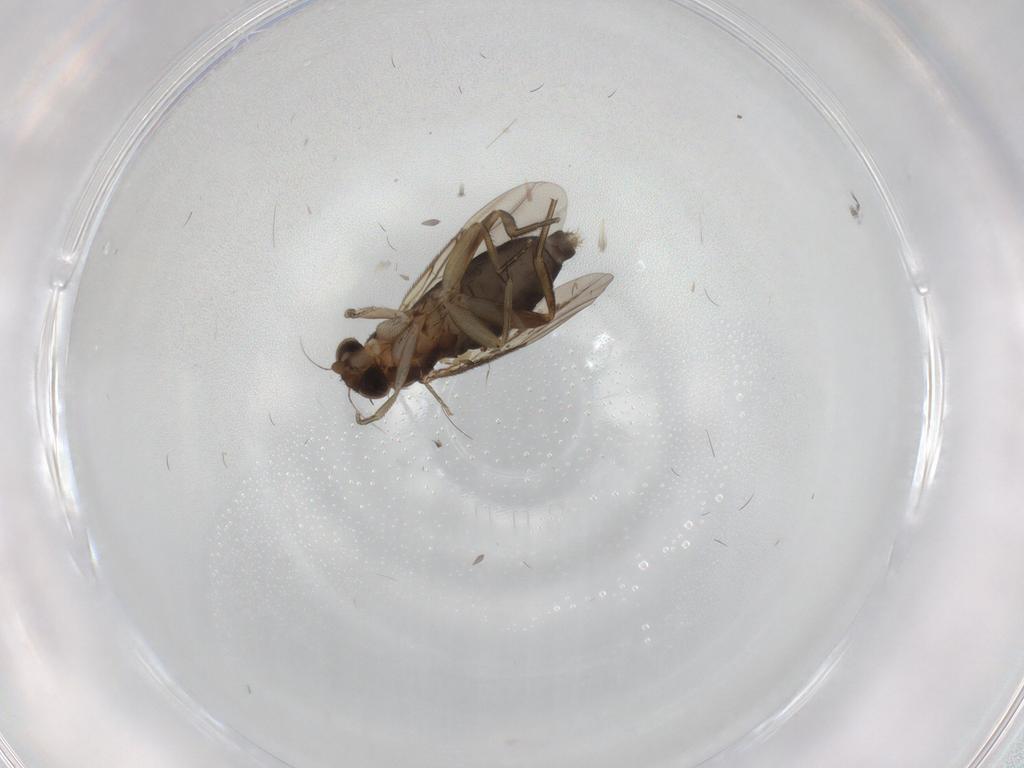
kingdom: Animalia
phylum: Arthropoda
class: Insecta
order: Diptera
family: Phoridae
